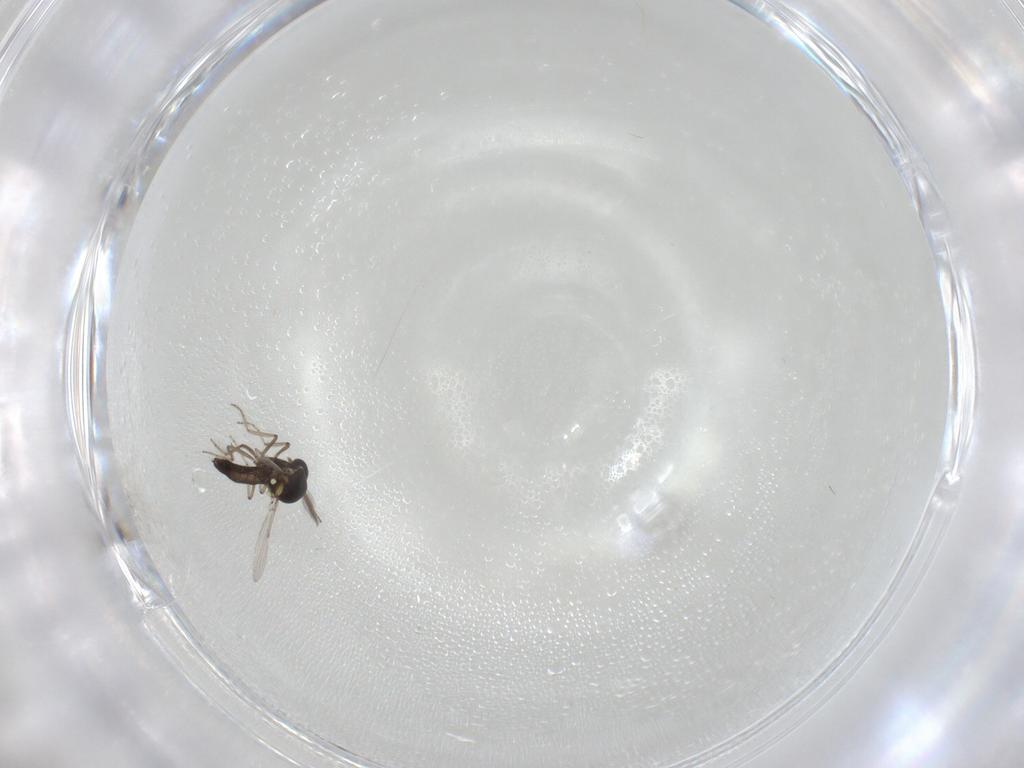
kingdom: Animalia
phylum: Arthropoda
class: Insecta
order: Diptera
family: Ceratopogonidae
